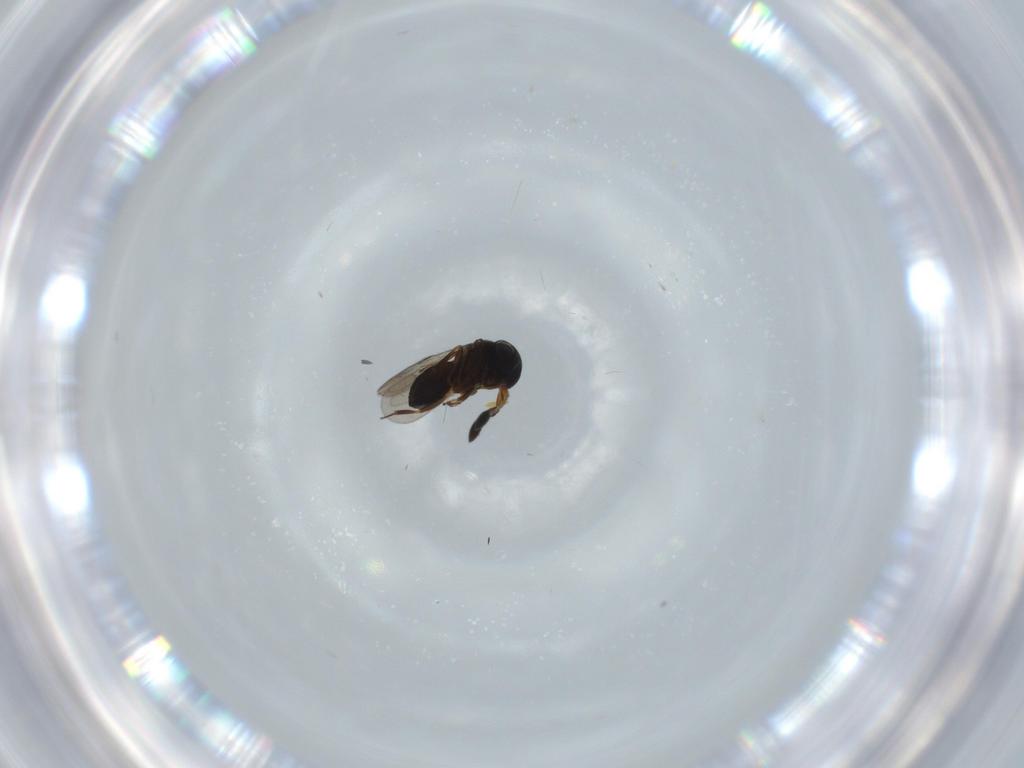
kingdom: Animalia
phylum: Arthropoda
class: Insecta
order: Hymenoptera
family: Scelionidae
